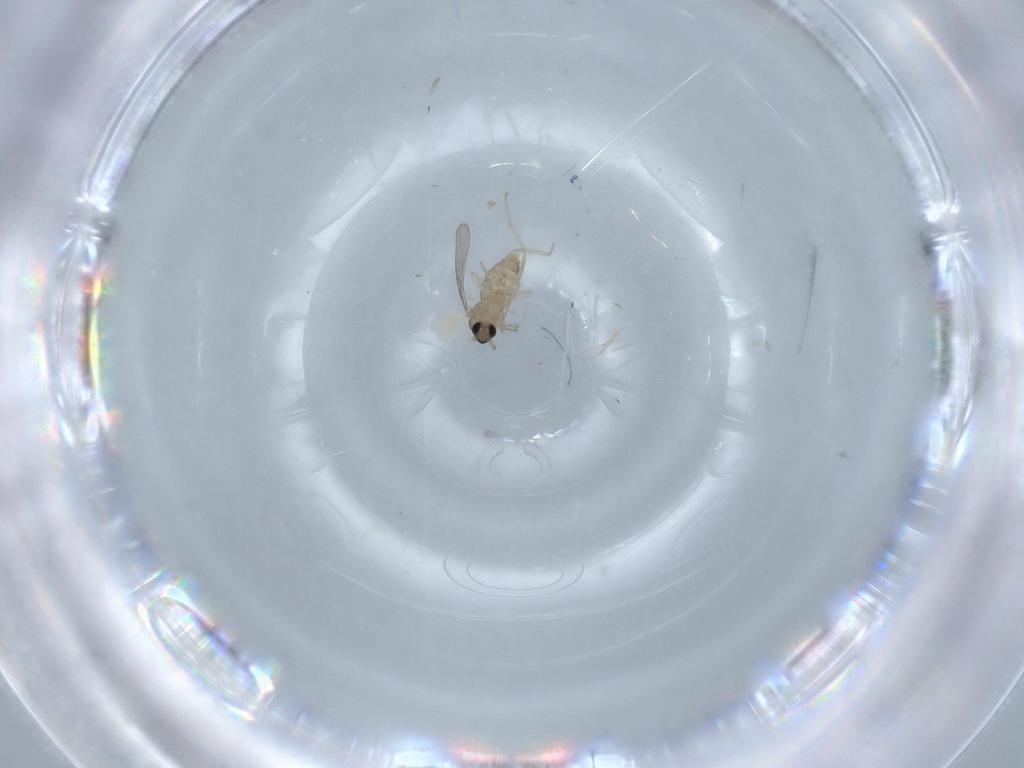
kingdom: Animalia
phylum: Arthropoda
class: Insecta
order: Diptera
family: Cecidomyiidae
